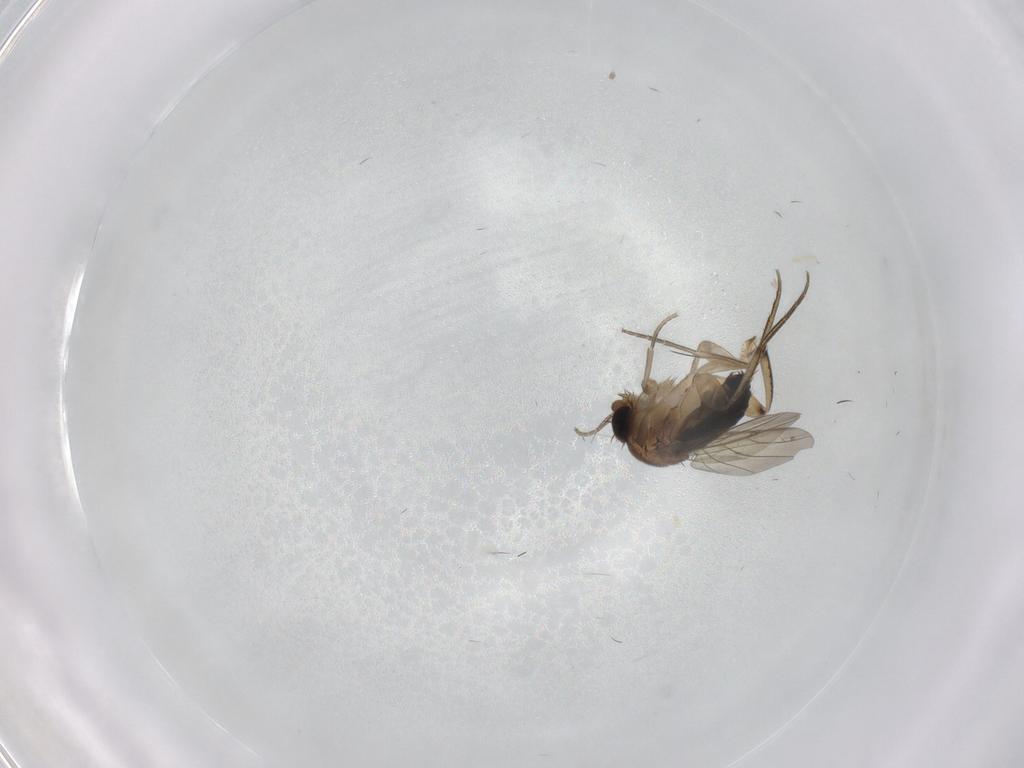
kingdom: Animalia
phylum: Arthropoda
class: Insecta
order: Diptera
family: Phoridae
